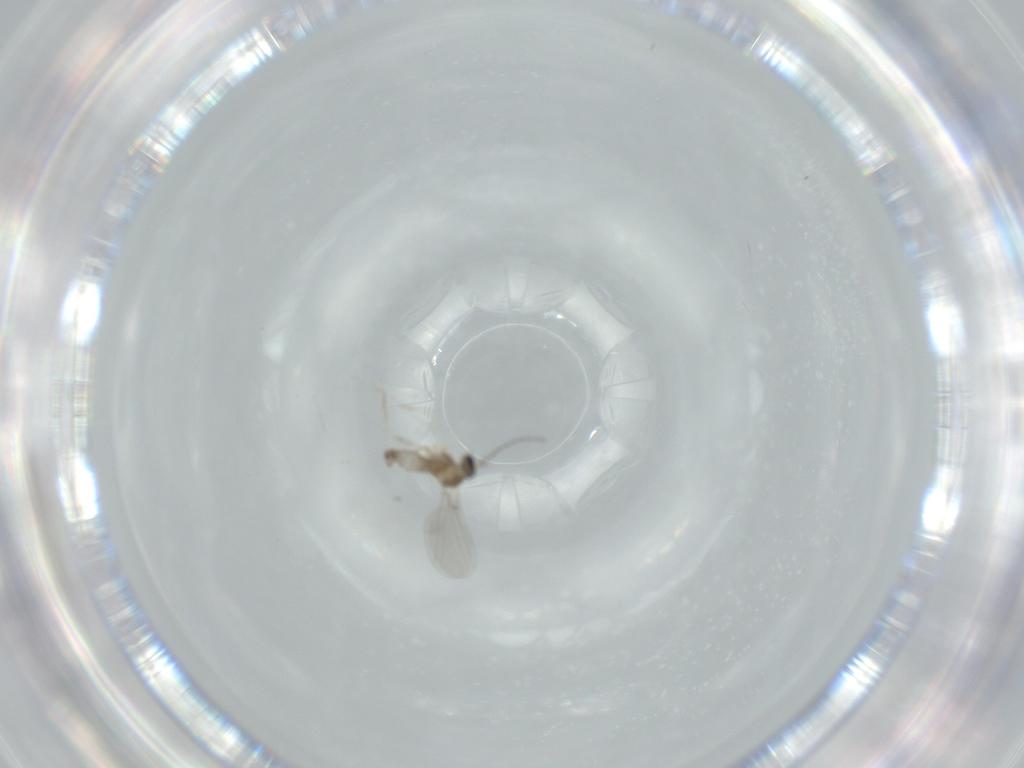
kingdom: Animalia
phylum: Arthropoda
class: Insecta
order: Diptera
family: Cecidomyiidae
